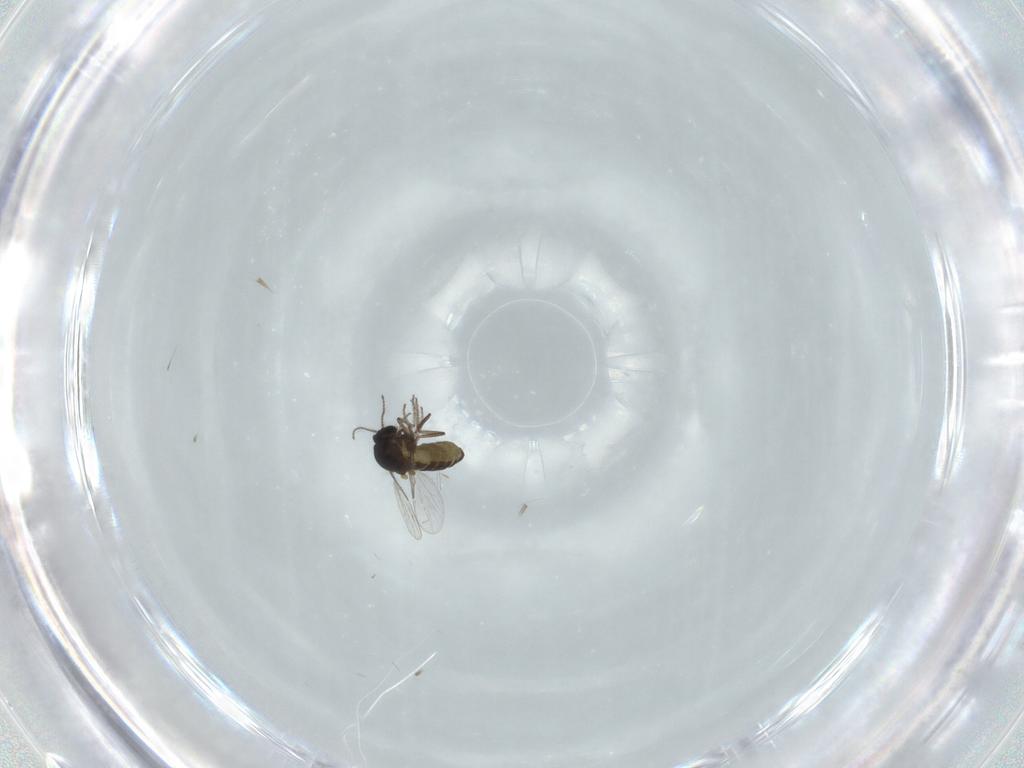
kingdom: Animalia
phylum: Arthropoda
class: Insecta
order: Diptera
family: Ceratopogonidae
